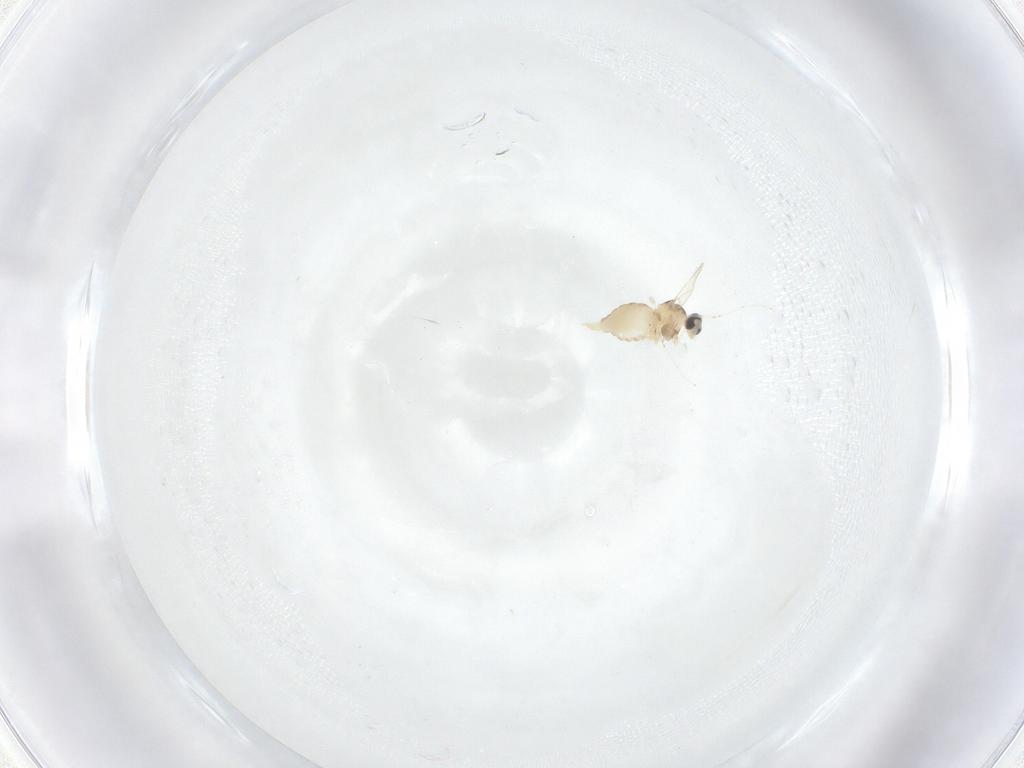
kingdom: Animalia
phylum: Arthropoda
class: Insecta
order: Diptera
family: Cecidomyiidae
